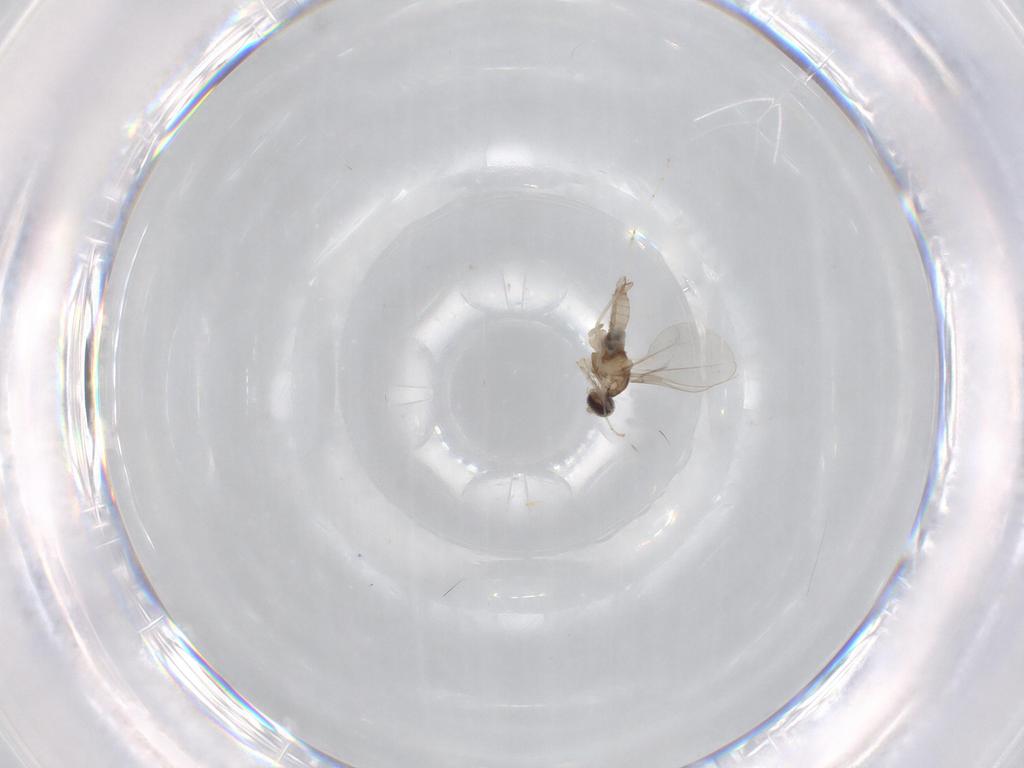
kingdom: Animalia
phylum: Arthropoda
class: Insecta
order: Diptera
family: Cecidomyiidae
